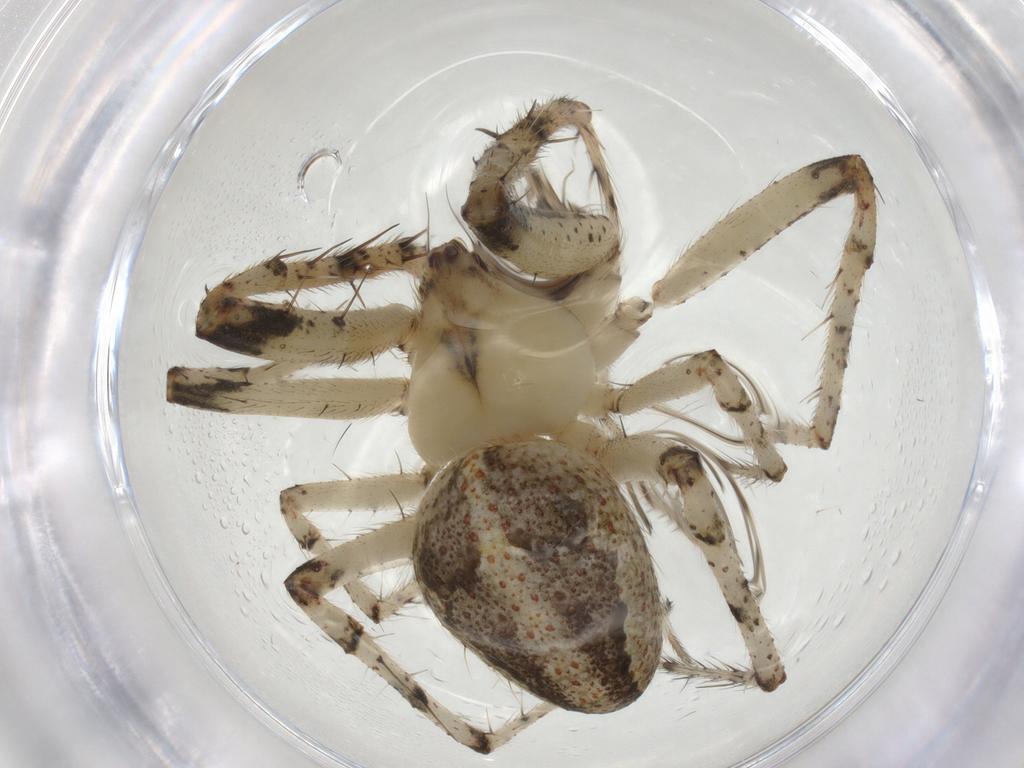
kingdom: Animalia
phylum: Arthropoda
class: Arachnida
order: Araneae
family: Araneidae
